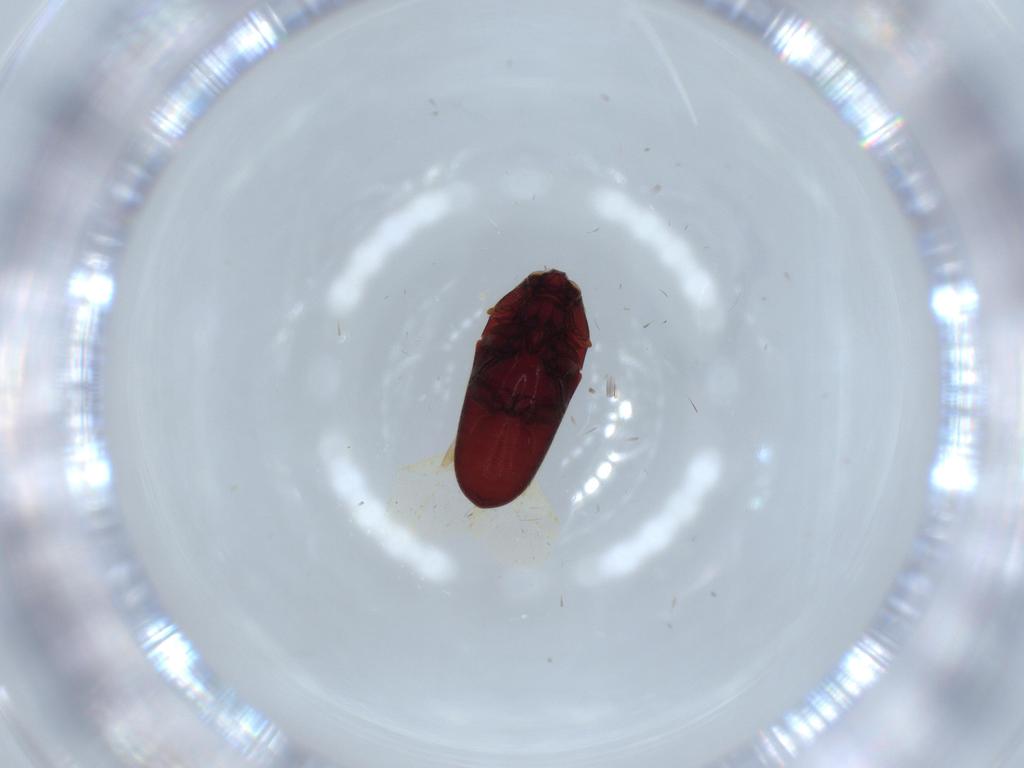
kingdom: Animalia
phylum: Arthropoda
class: Insecta
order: Coleoptera
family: Throscidae
